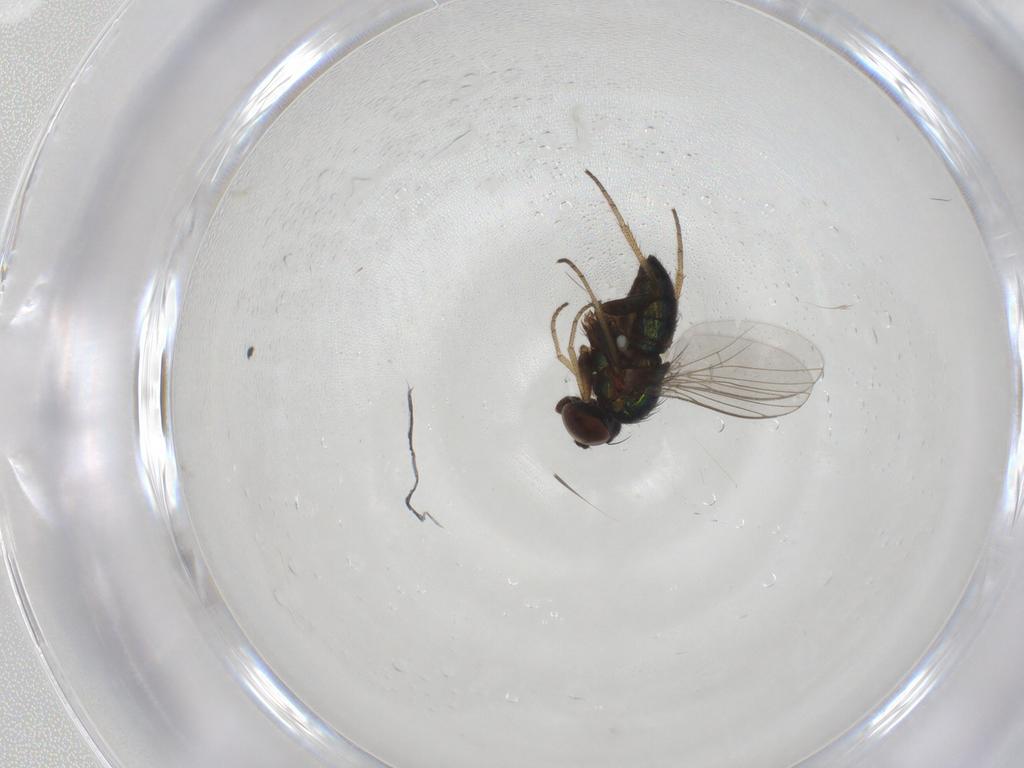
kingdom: Animalia
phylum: Arthropoda
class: Insecta
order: Diptera
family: Dolichopodidae
